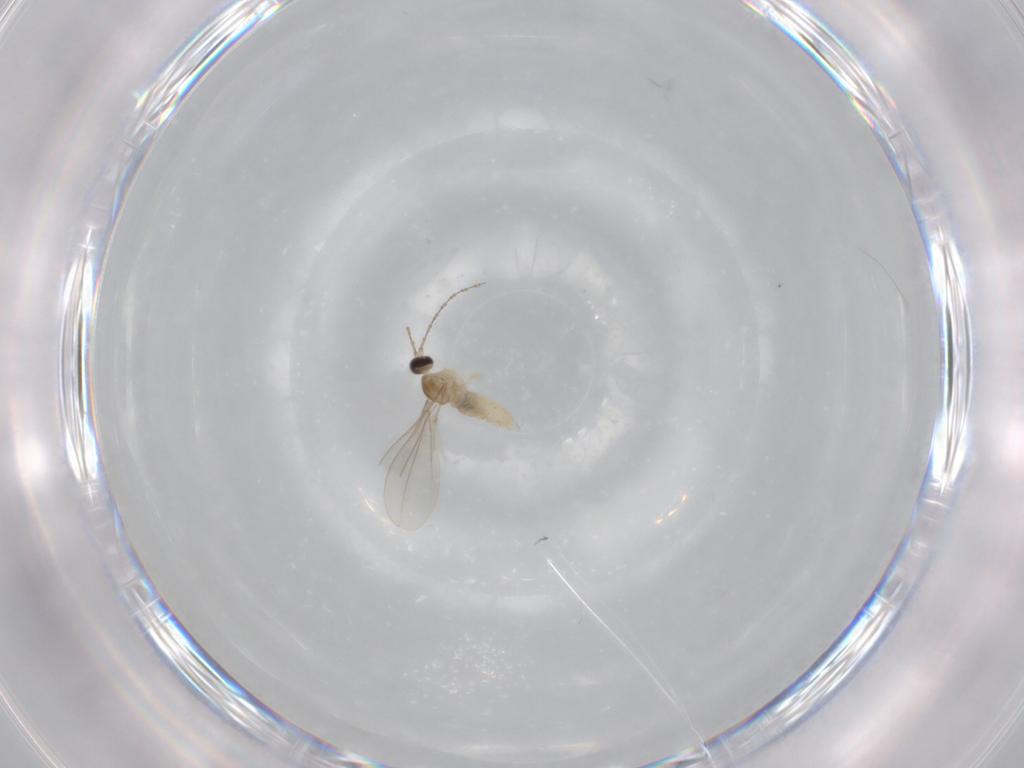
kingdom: Animalia
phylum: Arthropoda
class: Insecta
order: Diptera
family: Cecidomyiidae
